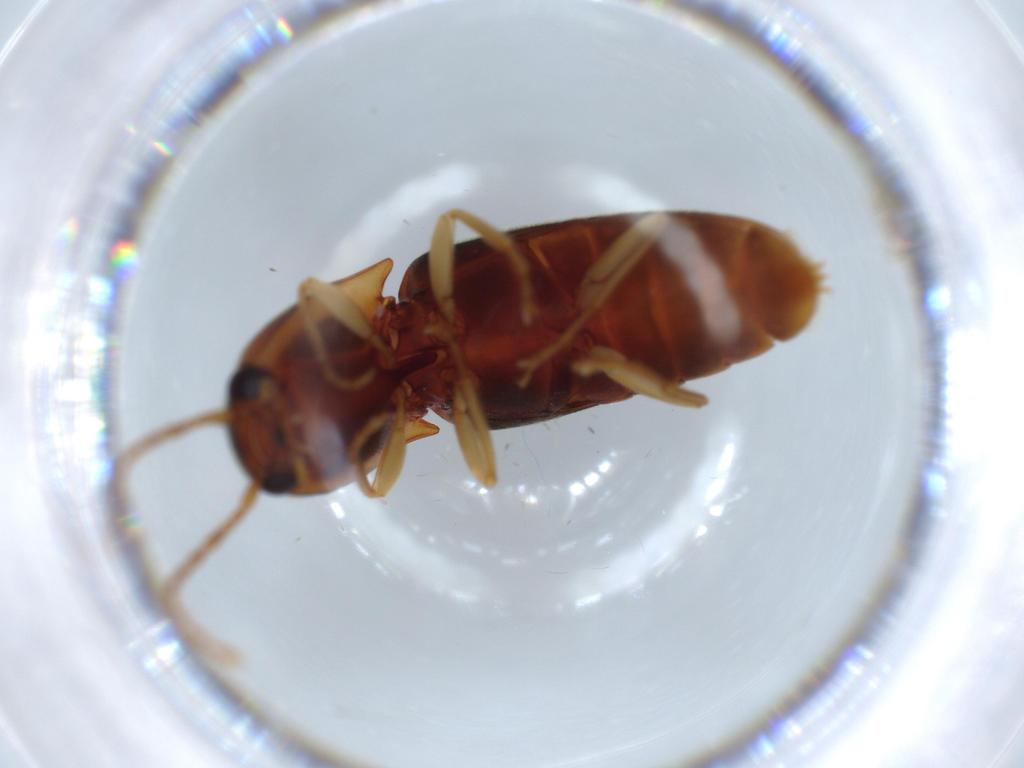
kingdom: Animalia
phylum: Arthropoda
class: Insecta
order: Coleoptera
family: Elateridae
